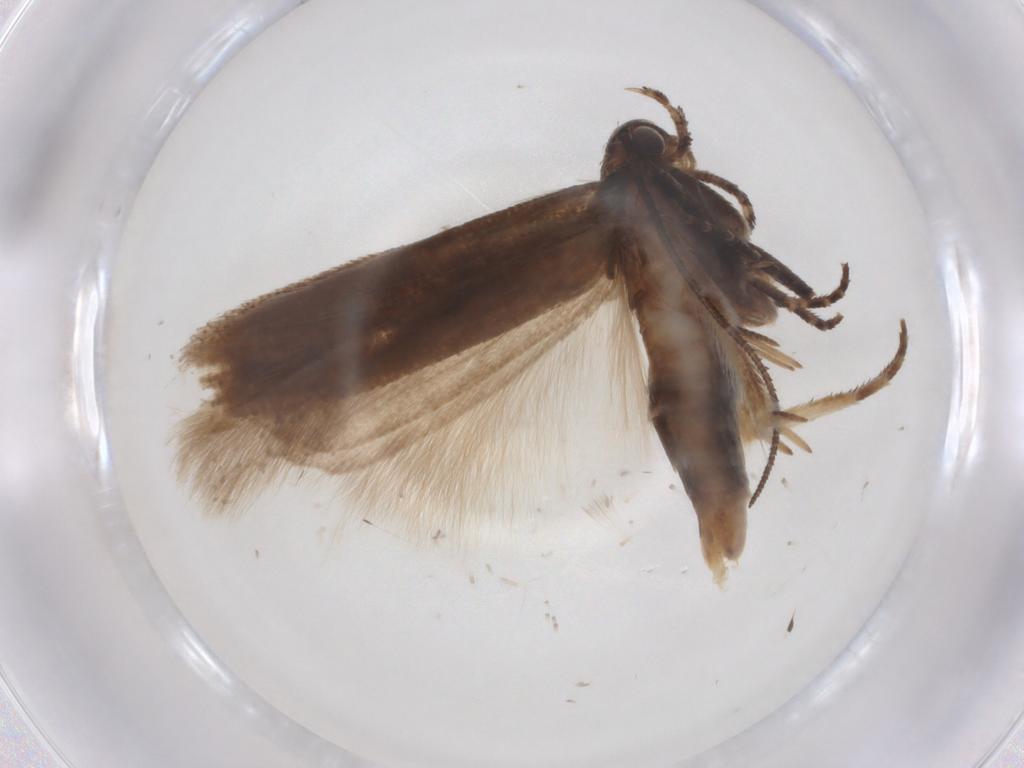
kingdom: Animalia
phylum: Arthropoda
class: Insecta
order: Lepidoptera
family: Gelechiidae
